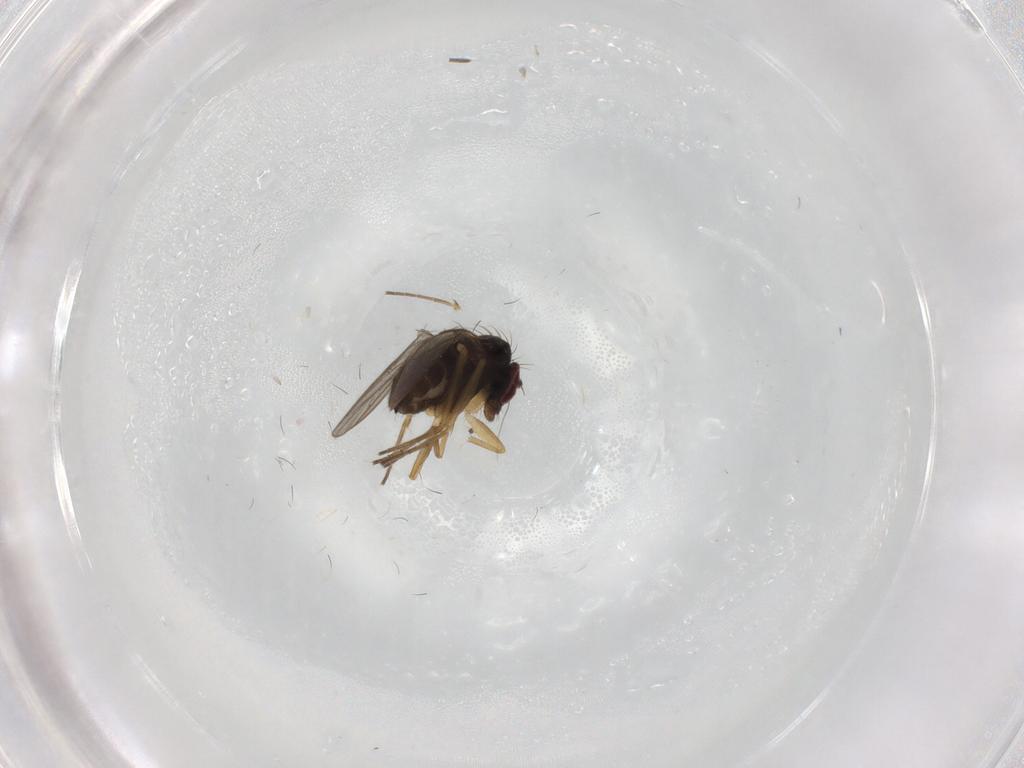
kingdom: Animalia
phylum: Arthropoda
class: Insecta
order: Diptera
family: Dolichopodidae
